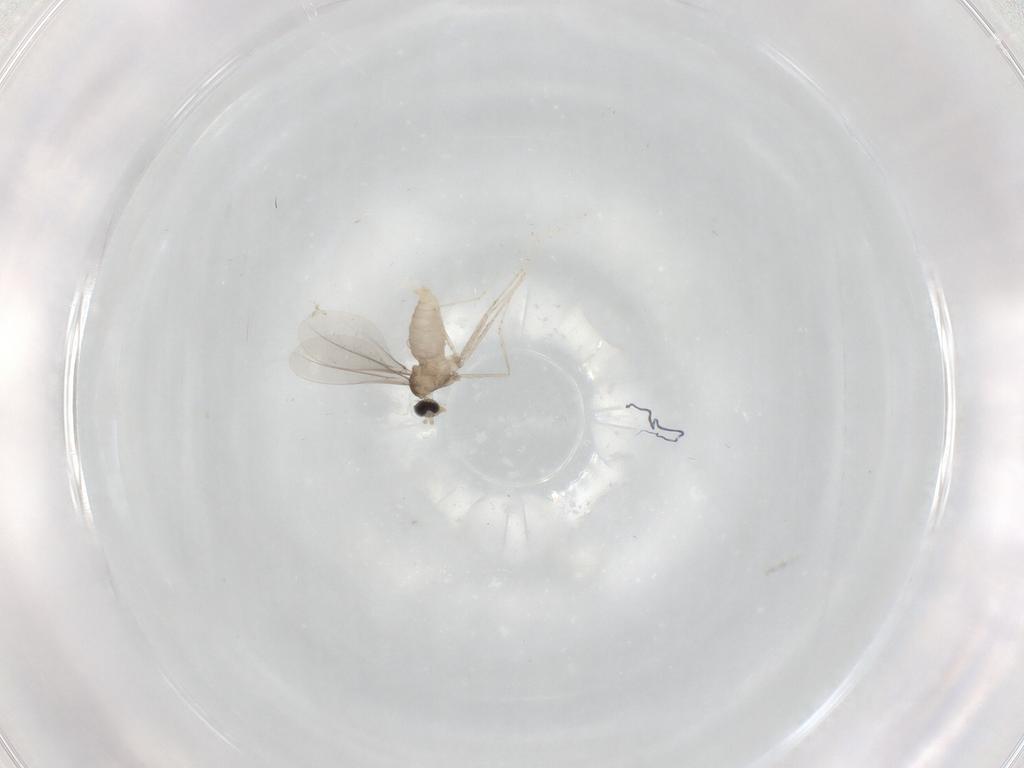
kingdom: Animalia
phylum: Arthropoda
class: Insecta
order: Diptera
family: Cecidomyiidae
